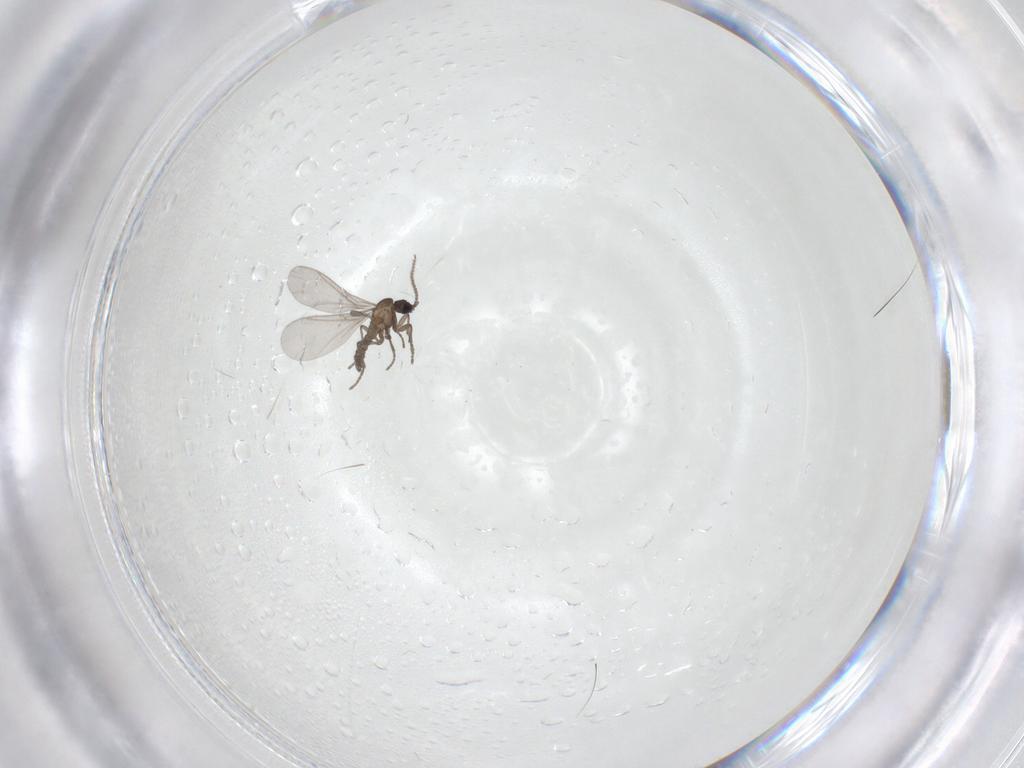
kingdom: Animalia
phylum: Arthropoda
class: Insecta
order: Diptera
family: Sciaridae
